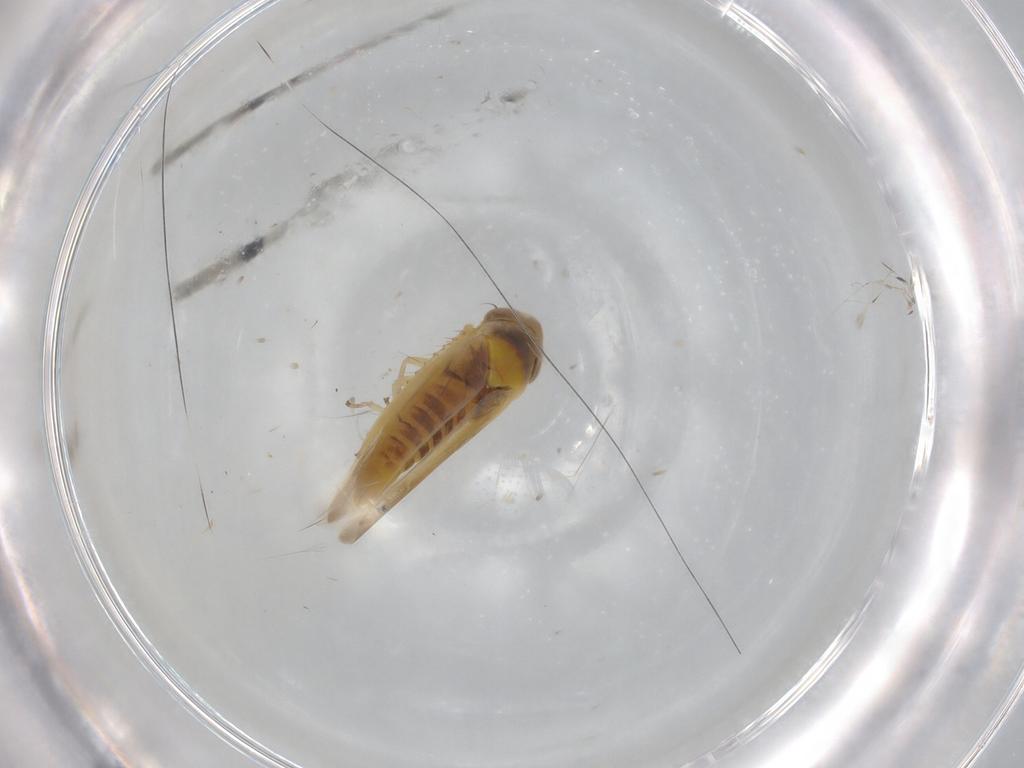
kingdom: Animalia
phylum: Arthropoda
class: Insecta
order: Hemiptera
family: Cicadellidae
